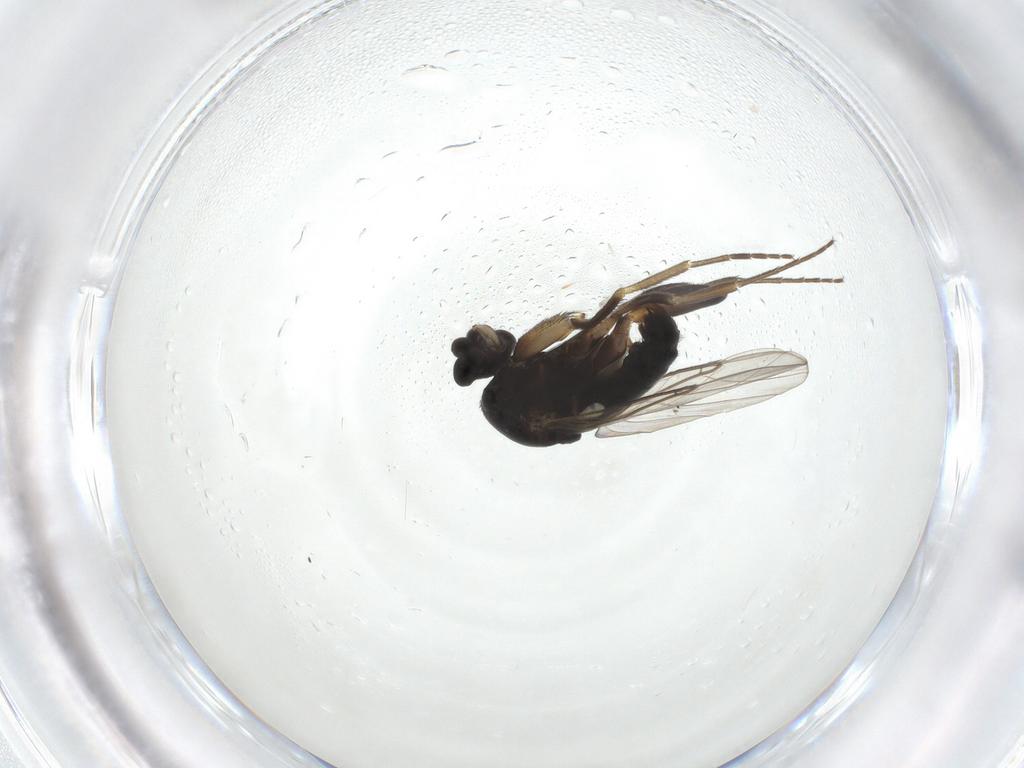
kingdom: Animalia
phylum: Arthropoda
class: Insecta
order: Diptera
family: Phoridae
